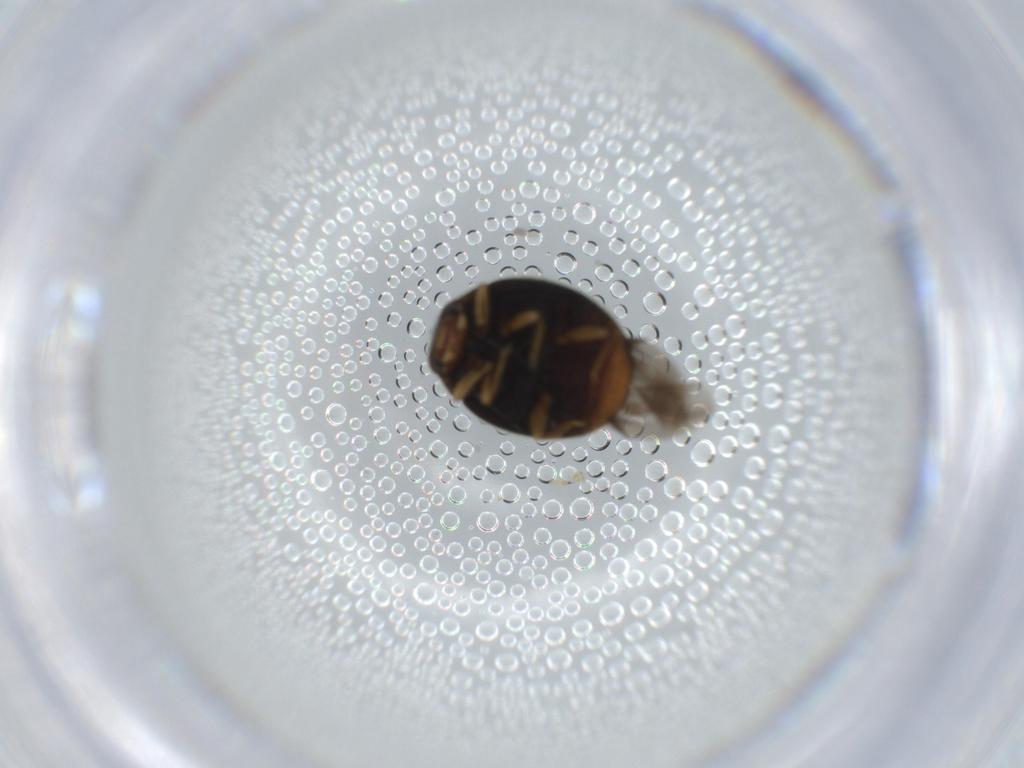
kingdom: Animalia
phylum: Arthropoda
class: Insecta
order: Coleoptera
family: Coccinellidae
